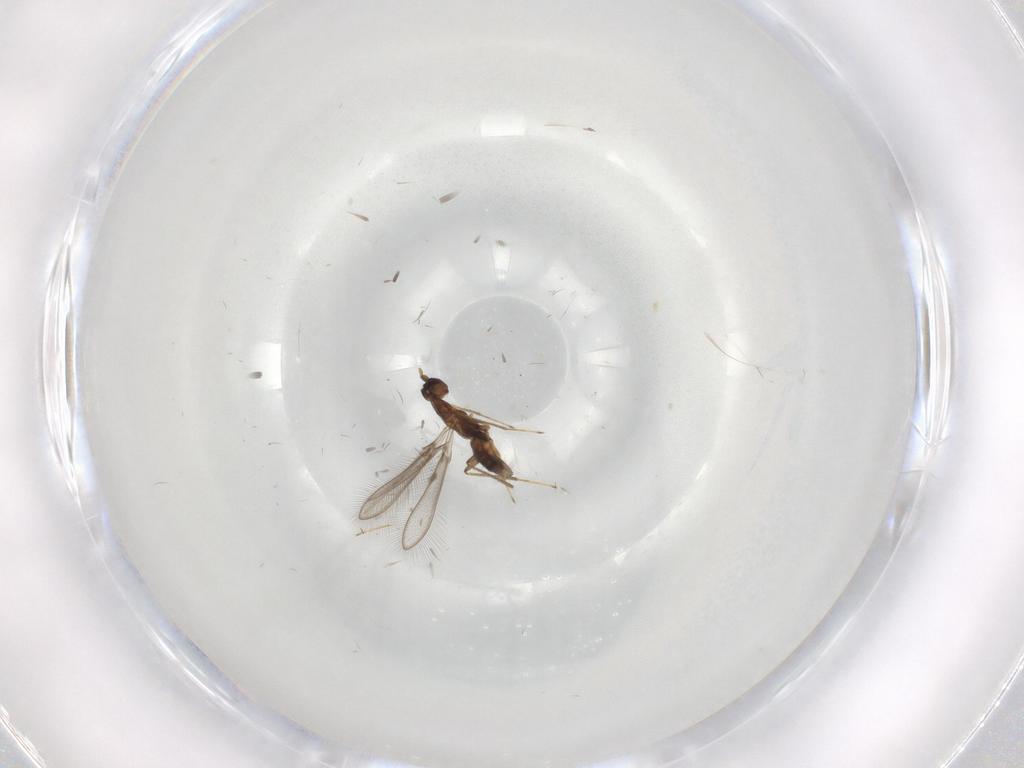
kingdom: Animalia
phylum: Arthropoda
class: Insecta
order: Hymenoptera
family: Mymaridae
